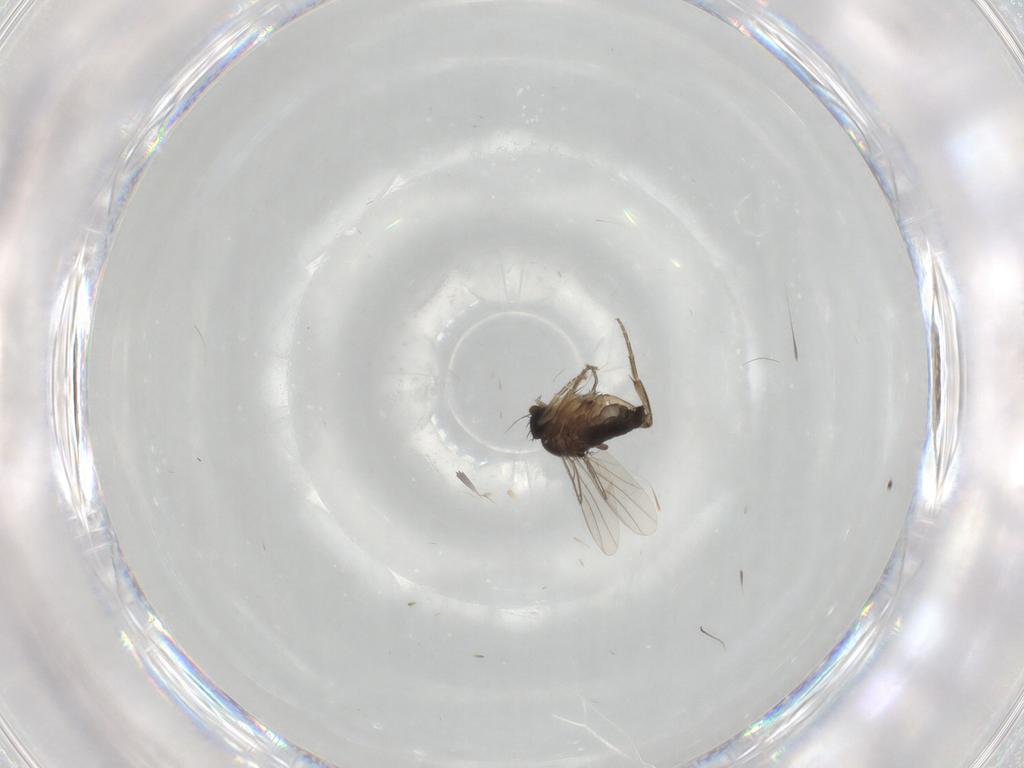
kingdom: Animalia
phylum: Arthropoda
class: Insecta
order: Diptera
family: Phoridae
